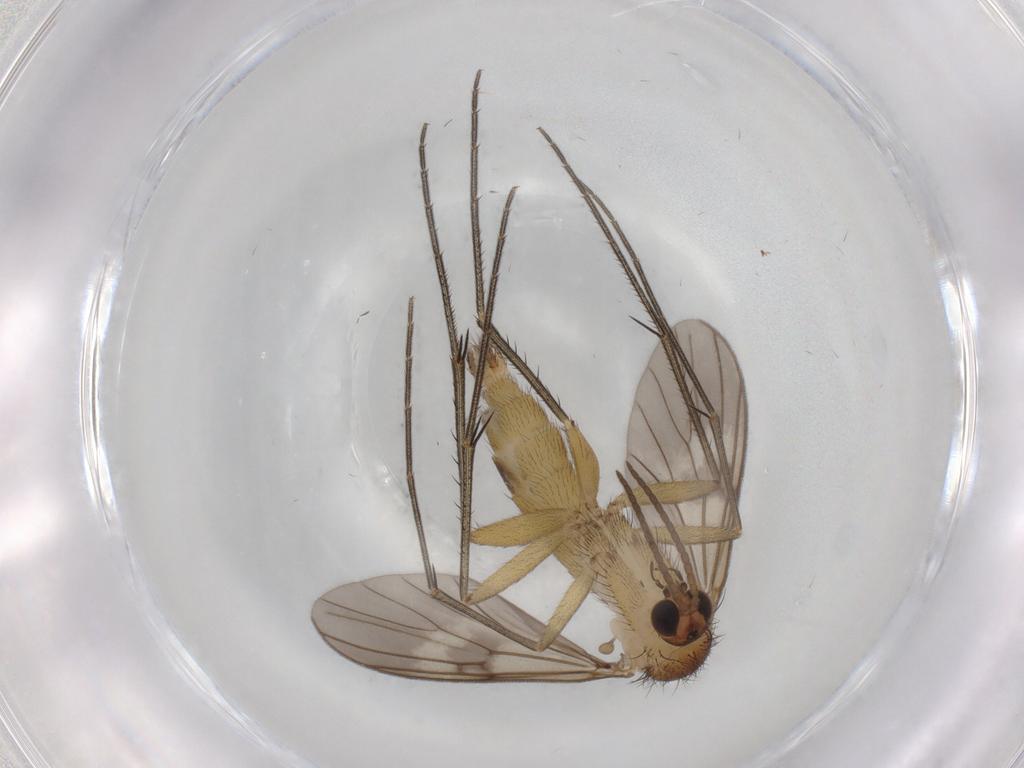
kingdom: Animalia
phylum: Arthropoda
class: Insecta
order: Diptera
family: Mycetophilidae
